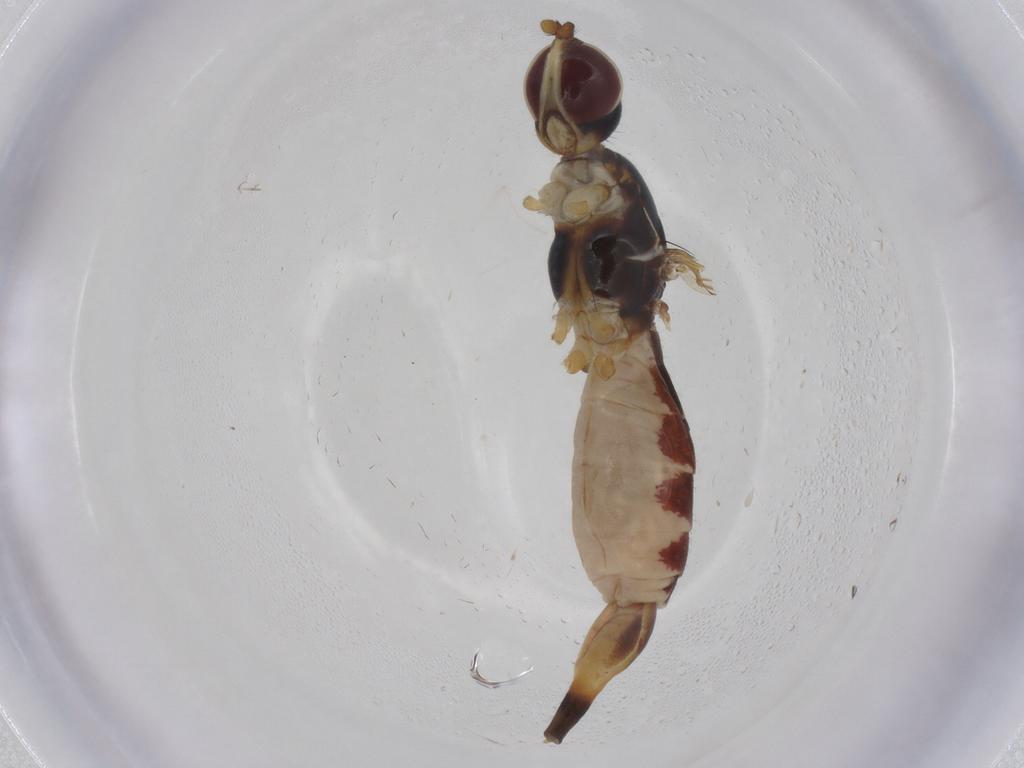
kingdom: Animalia
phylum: Arthropoda
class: Insecta
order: Diptera
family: Micropezidae
